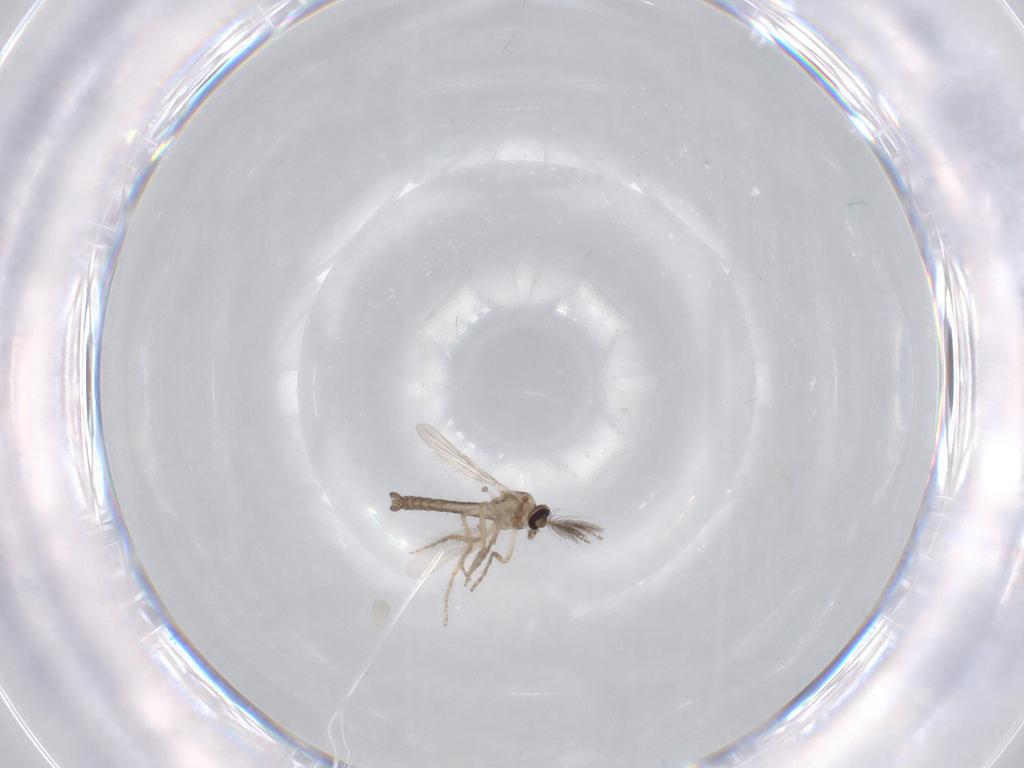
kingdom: Animalia
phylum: Arthropoda
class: Insecta
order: Diptera
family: Ceratopogonidae
